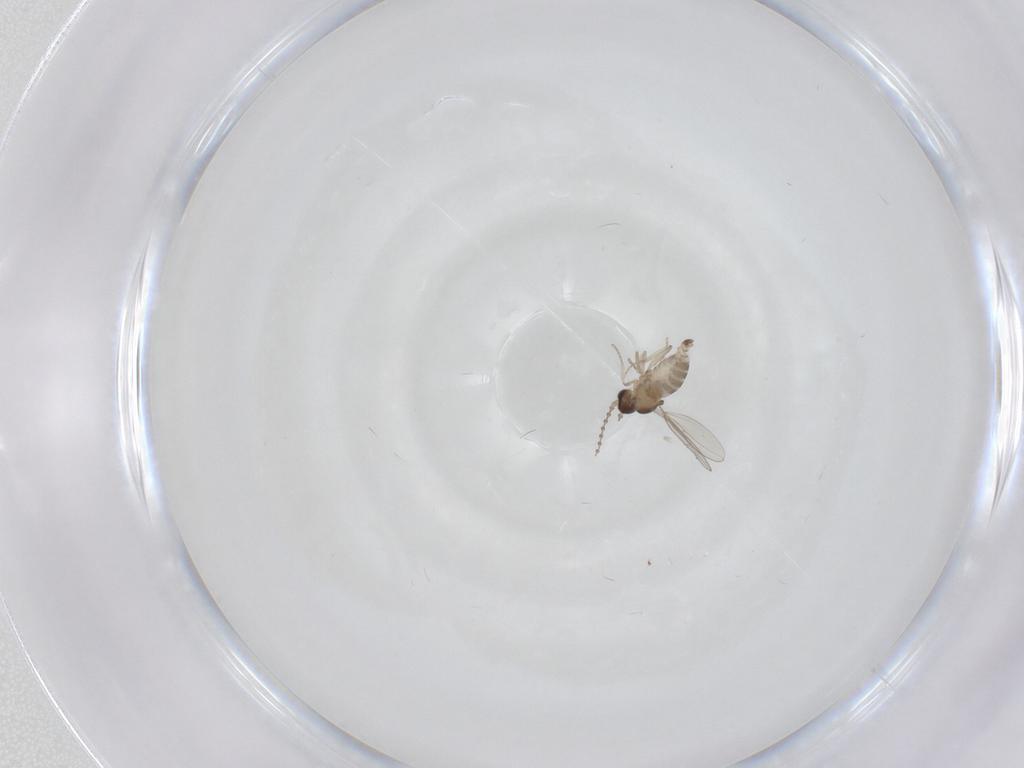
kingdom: Animalia
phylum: Arthropoda
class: Insecta
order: Diptera
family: Cecidomyiidae
